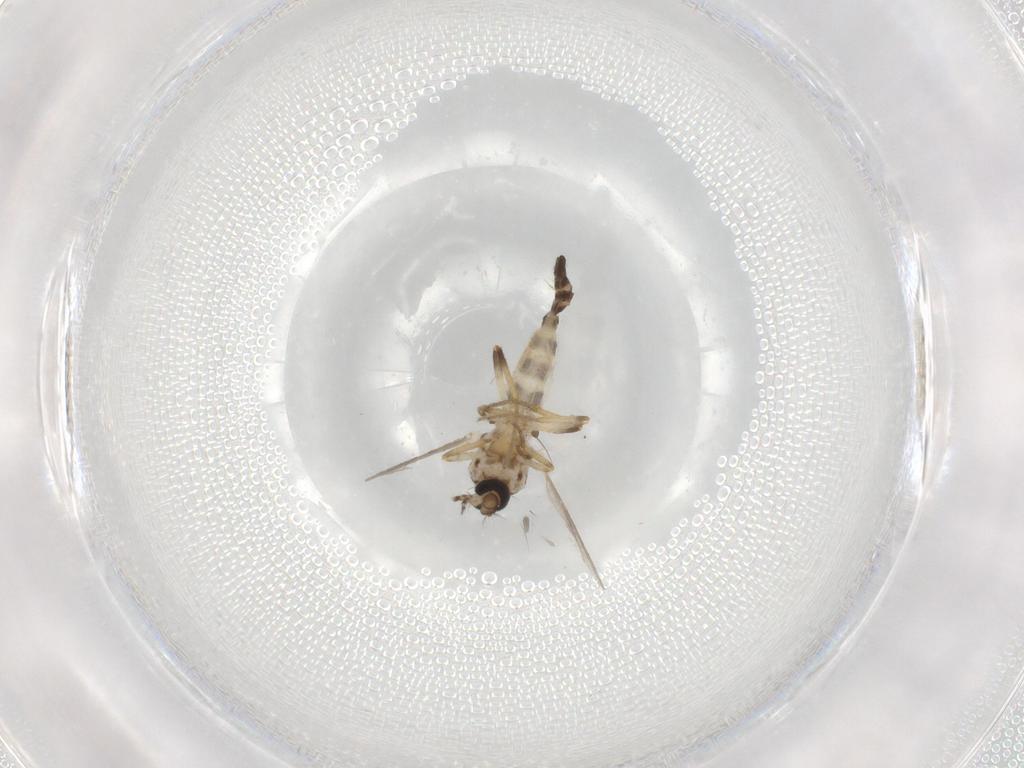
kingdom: Animalia
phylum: Arthropoda
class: Insecta
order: Diptera
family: Ceratopogonidae
